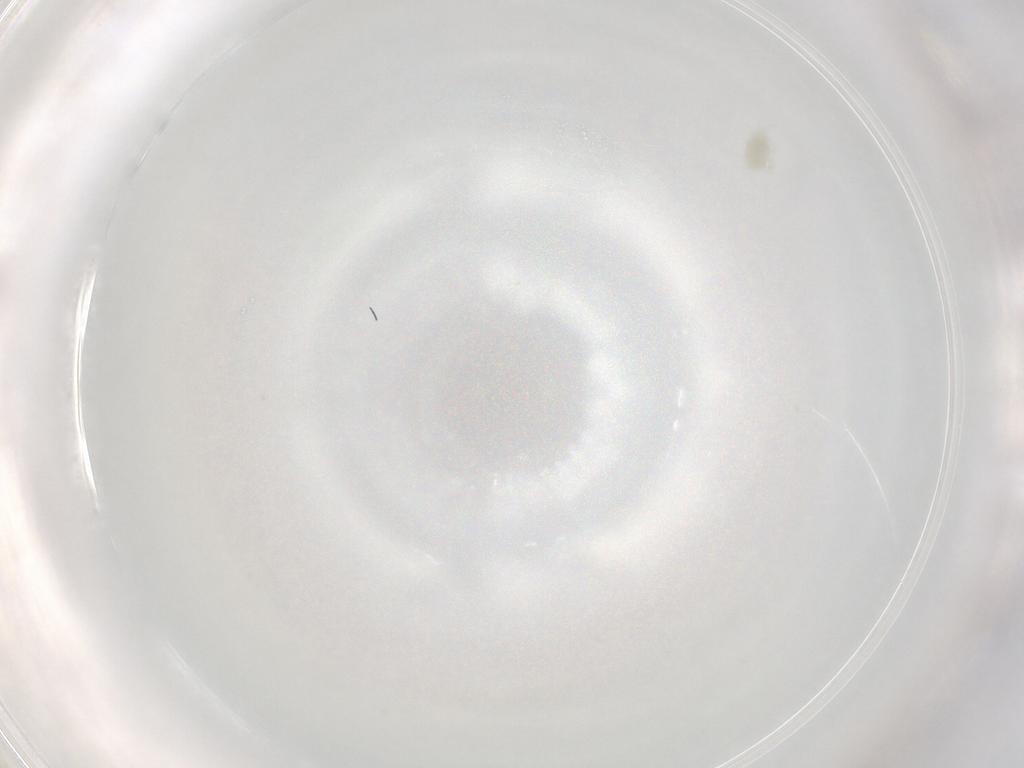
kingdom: Animalia
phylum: Arthropoda
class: Arachnida
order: Trombidiformes
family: Eupodidae
